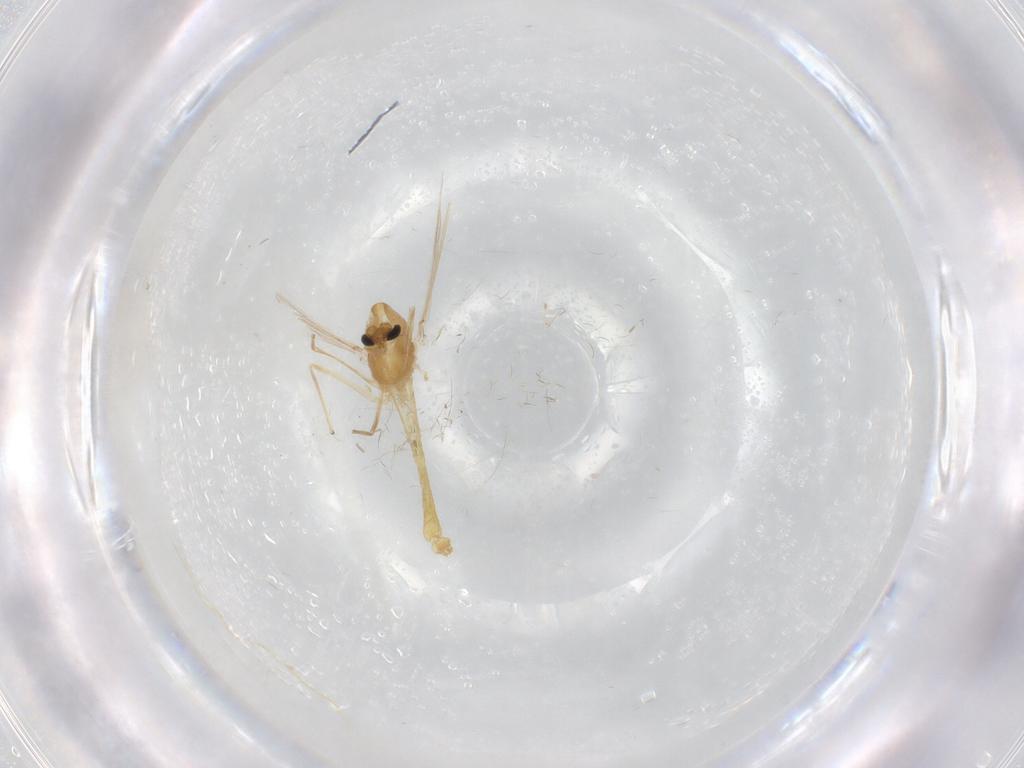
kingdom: Animalia
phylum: Arthropoda
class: Insecta
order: Diptera
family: Chironomidae
